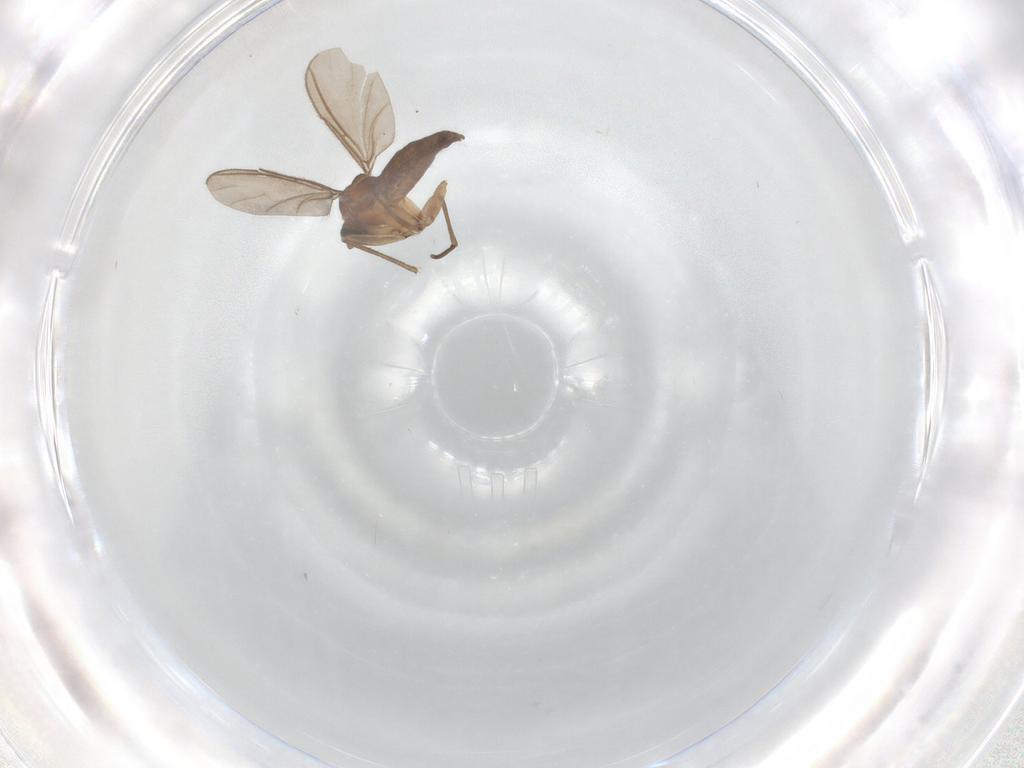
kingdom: Animalia
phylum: Arthropoda
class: Insecta
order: Diptera
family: Sciaridae
